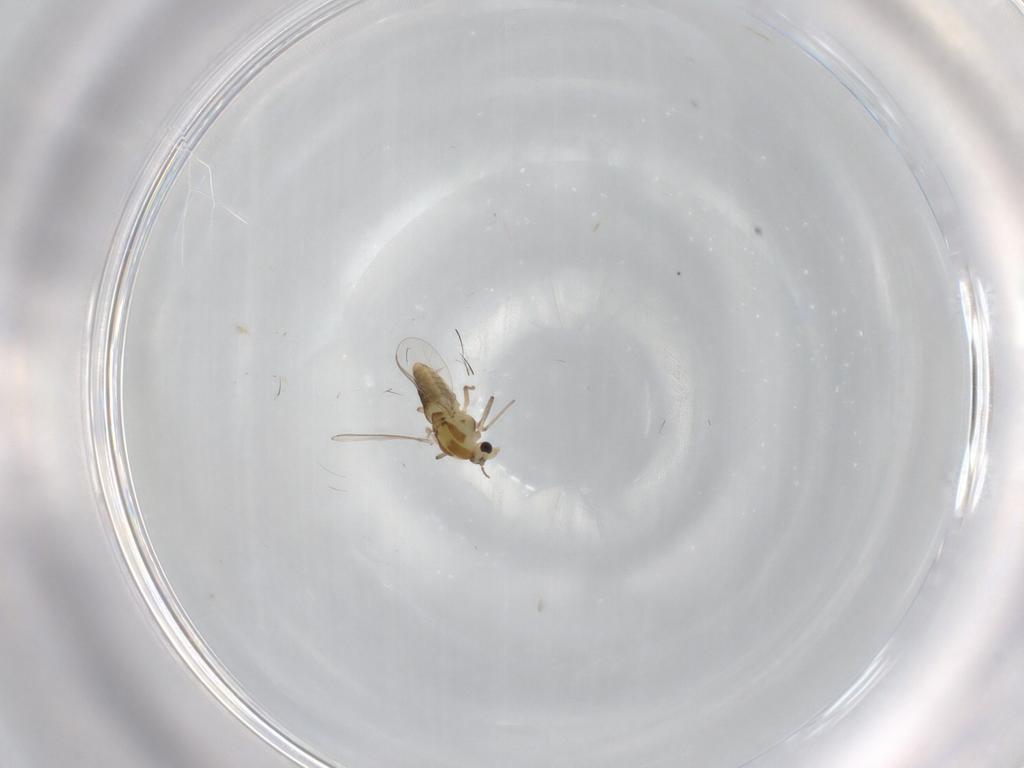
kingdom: Animalia
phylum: Arthropoda
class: Insecta
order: Diptera
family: Chironomidae
